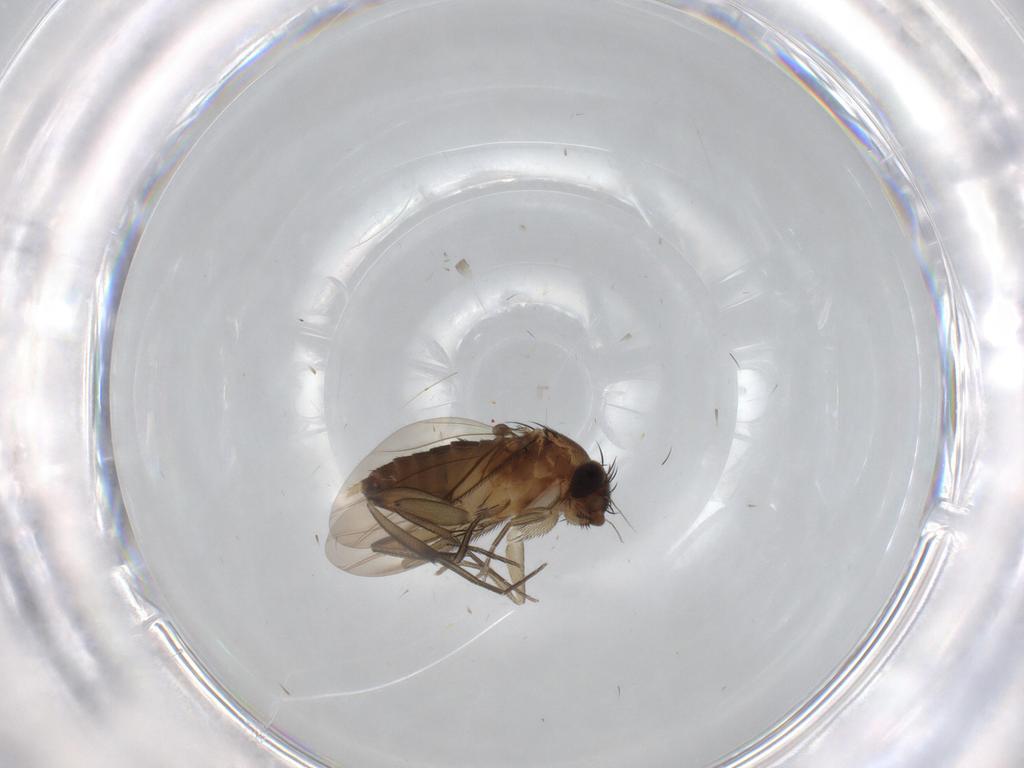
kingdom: Animalia
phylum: Arthropoda
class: Insecta
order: Diptera
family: Phoridae
